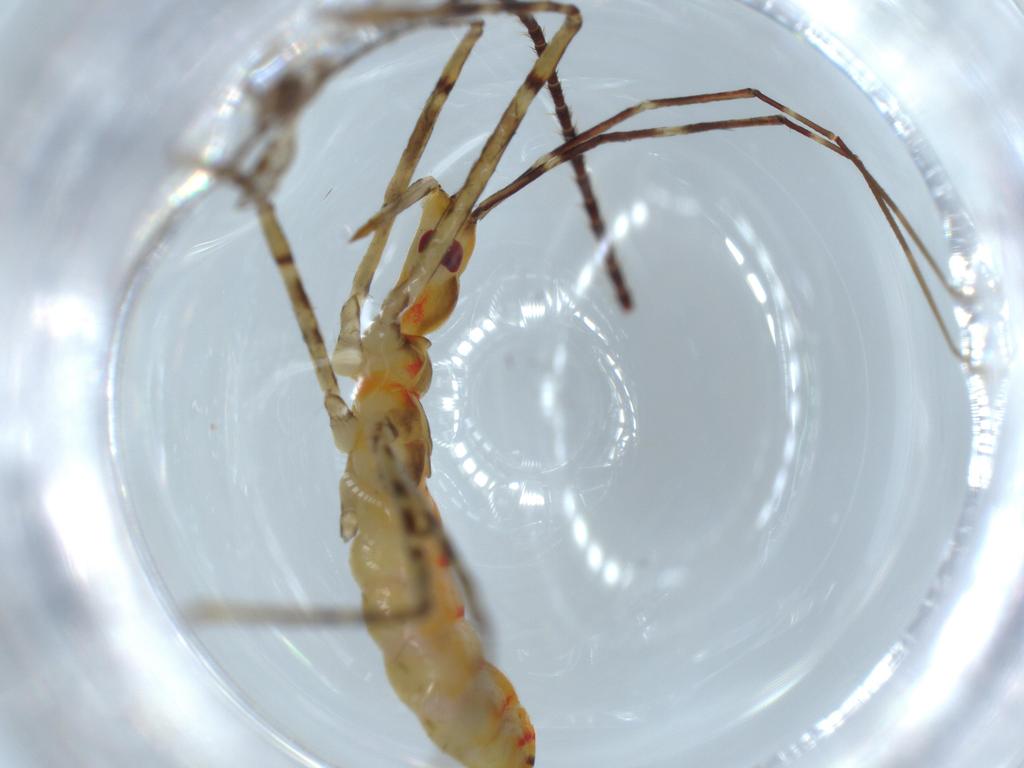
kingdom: Animalia
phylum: Arthropoda
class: Insecta
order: Hemiptera
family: Reduviidae
